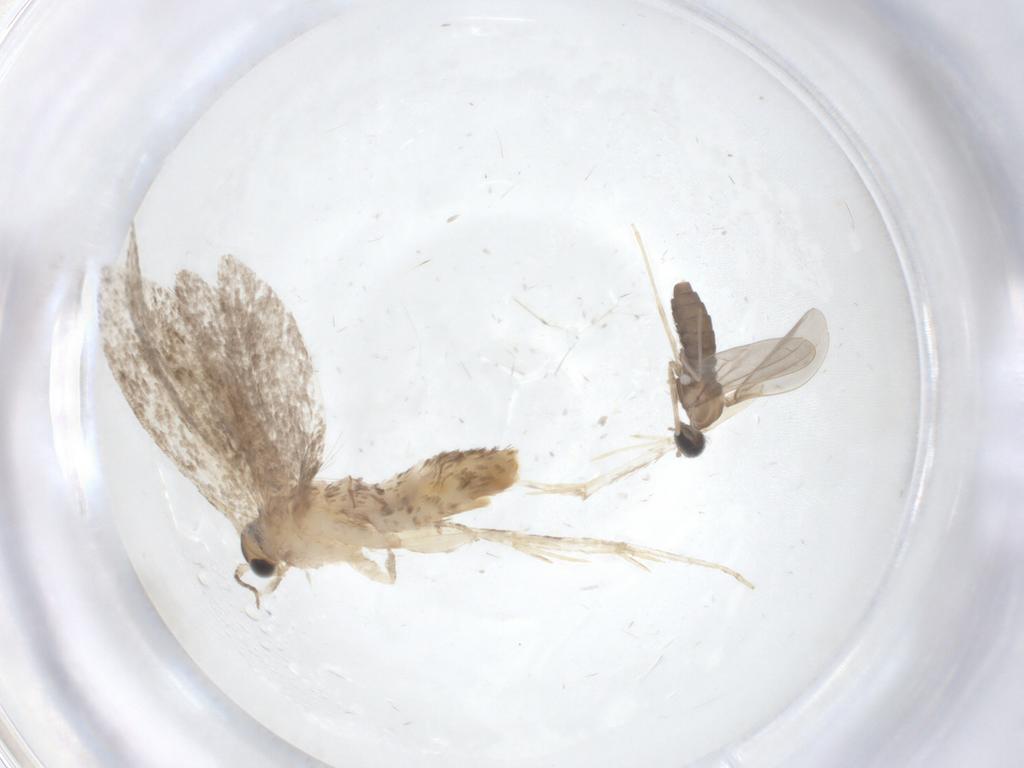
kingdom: Animalia
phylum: Arthropoda
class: Insecta
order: Diptera
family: Cecidomyiidae
